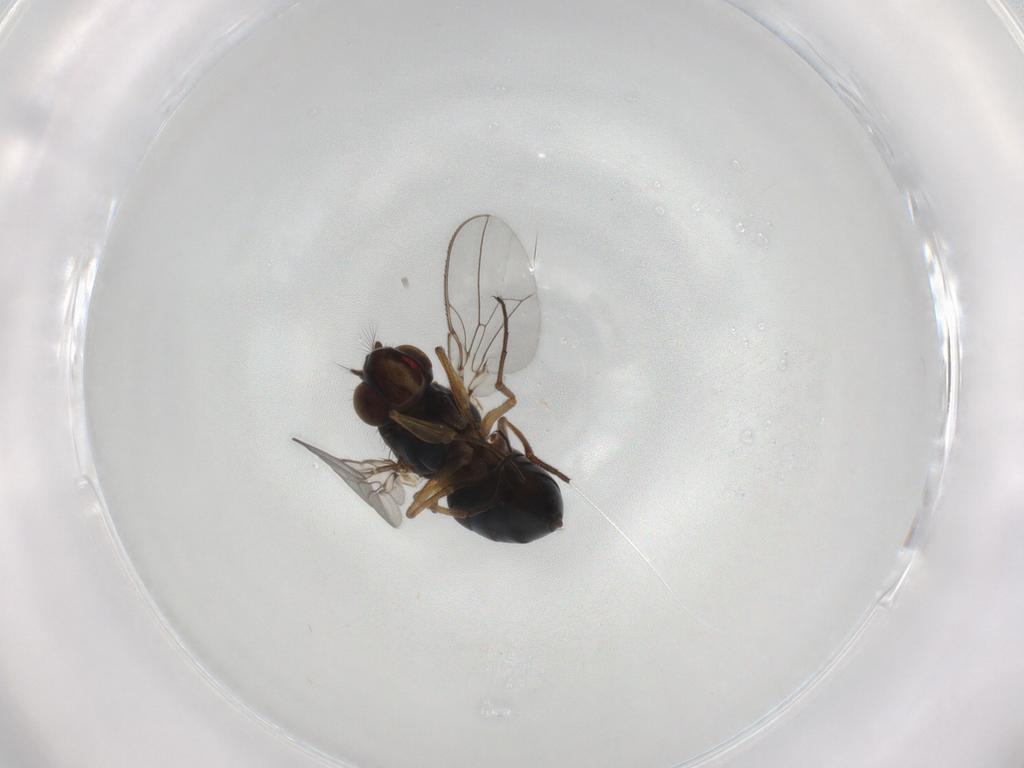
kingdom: Animalia
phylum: Arthropoda
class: Insecta
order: Diptera
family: Ephydridae
